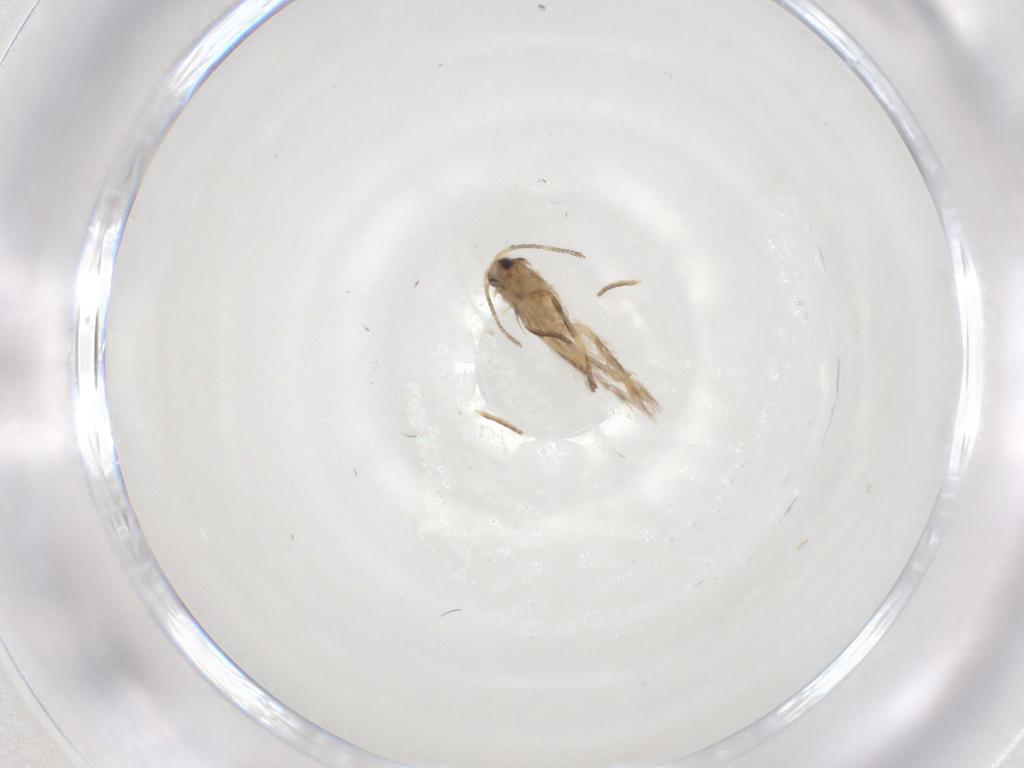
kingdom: Animalia
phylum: Arthropoda
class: Insecta
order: Lepidoptera
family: Nepticulidae
